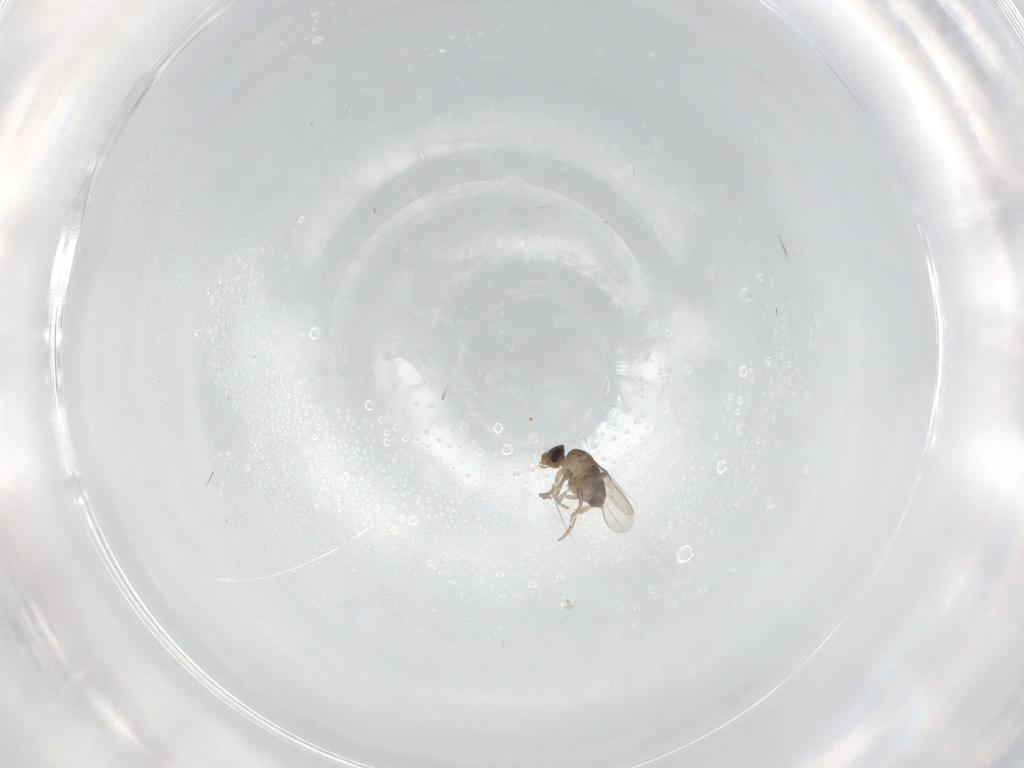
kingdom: Animalia
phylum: Arthropoda
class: Insecta
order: Diptera
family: Phoridae
